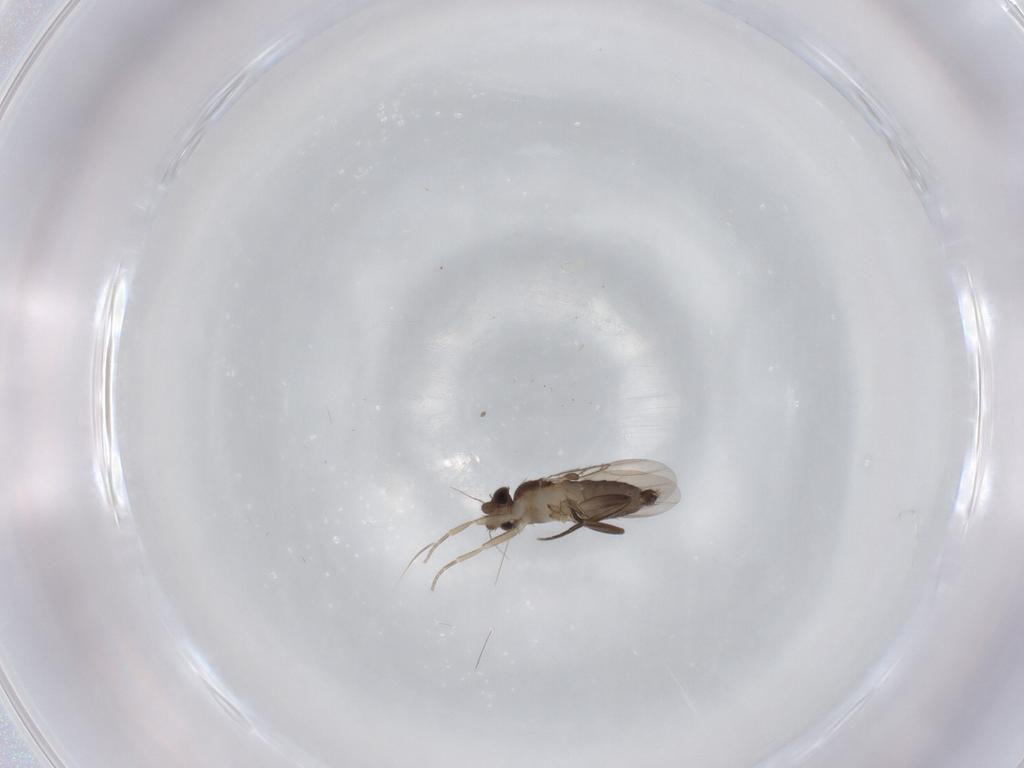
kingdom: Animalia
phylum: Arthropoda
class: Insecta
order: Diptera
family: Phoridae
